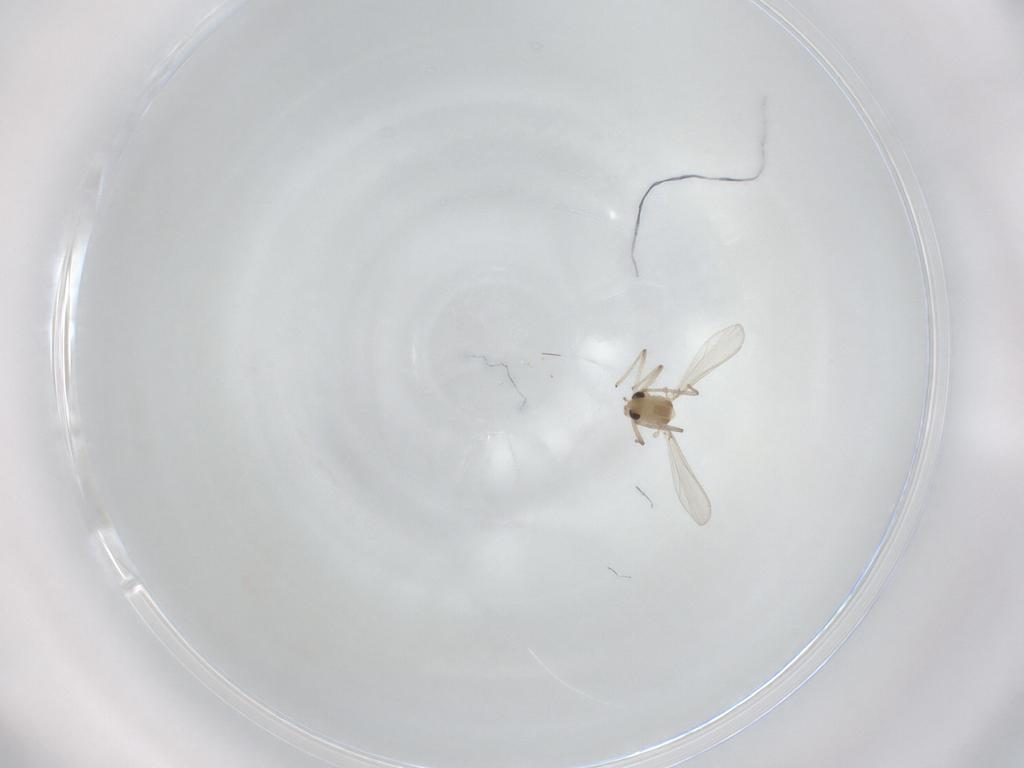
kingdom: Animalia
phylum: Arthropoda
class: Insecta
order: Diptera
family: Milichiidae
